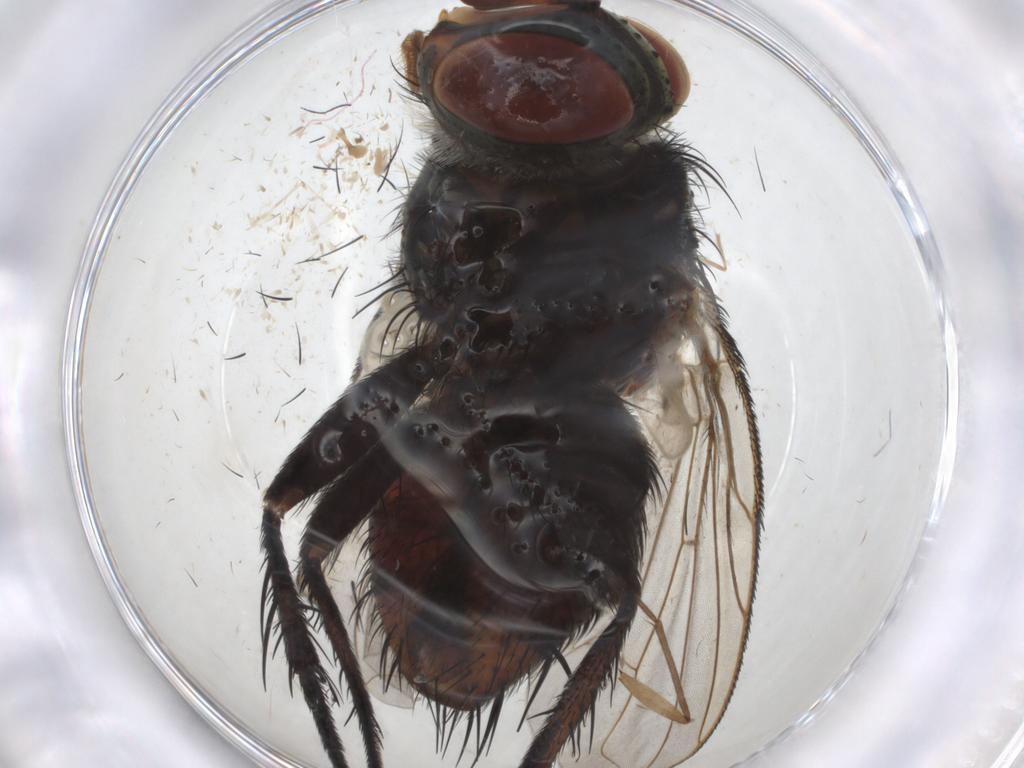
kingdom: Animalia
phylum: Arthropoda
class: Insecta
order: Diptera
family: Tachinidae
